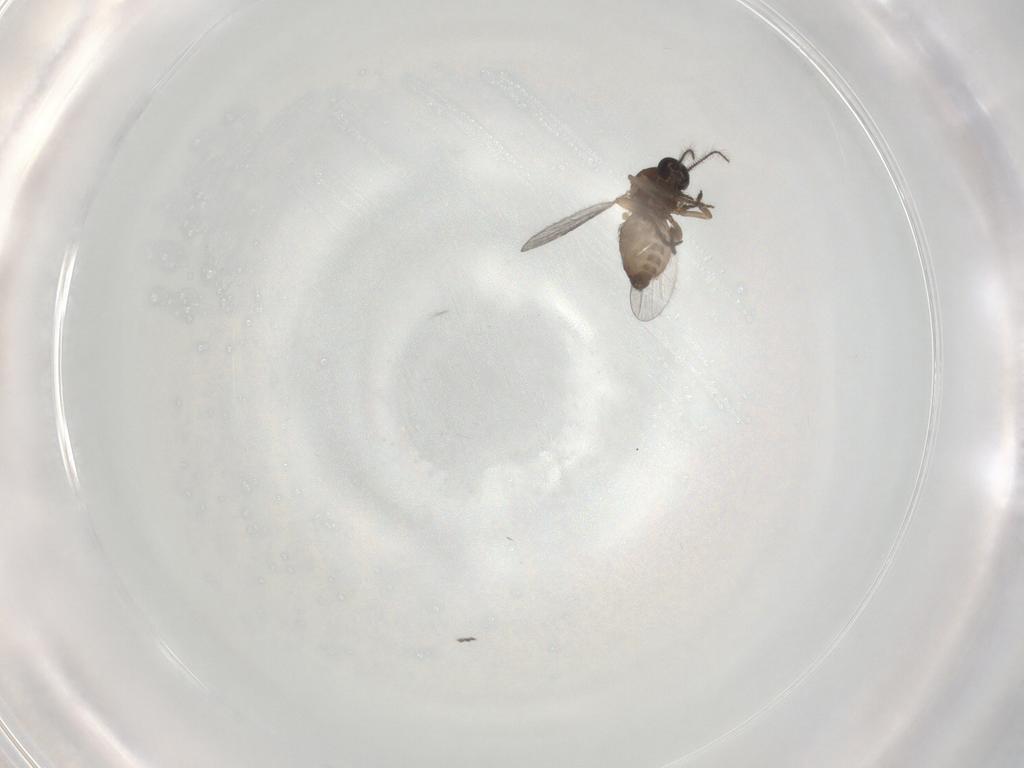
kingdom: Animalia
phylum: Arthropoda
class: Insecta
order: Diptera
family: Ceratopogonidae
